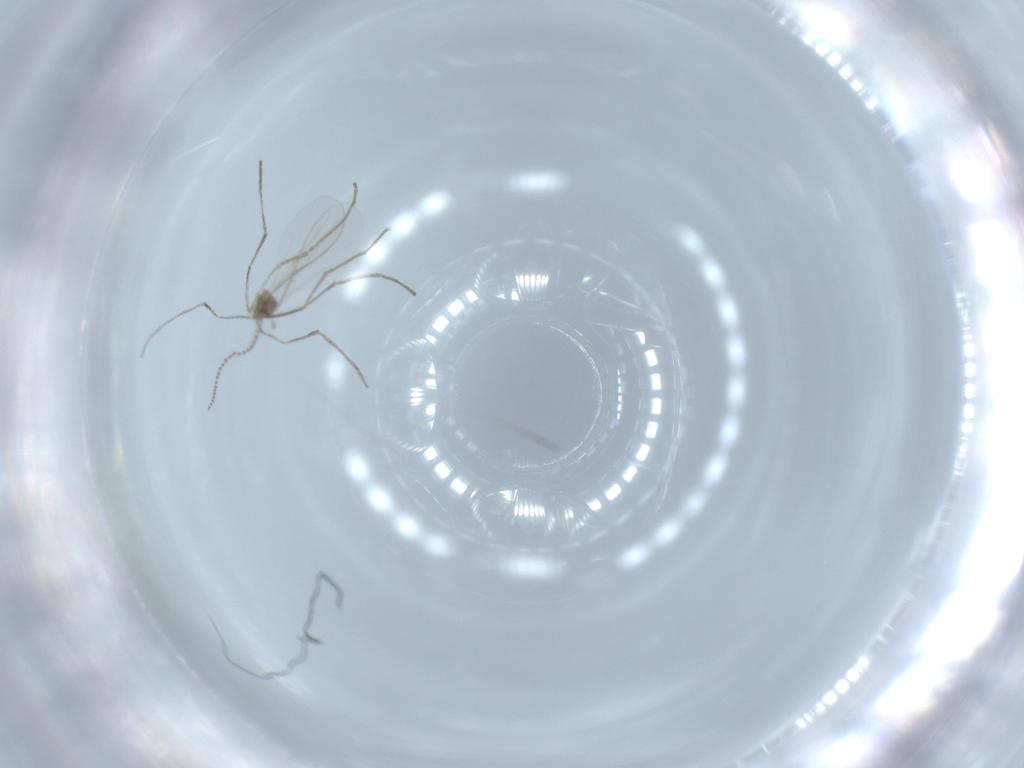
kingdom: Animalia
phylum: Arthropoda
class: Insecta
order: Diptera
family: Cecidomyiidae
